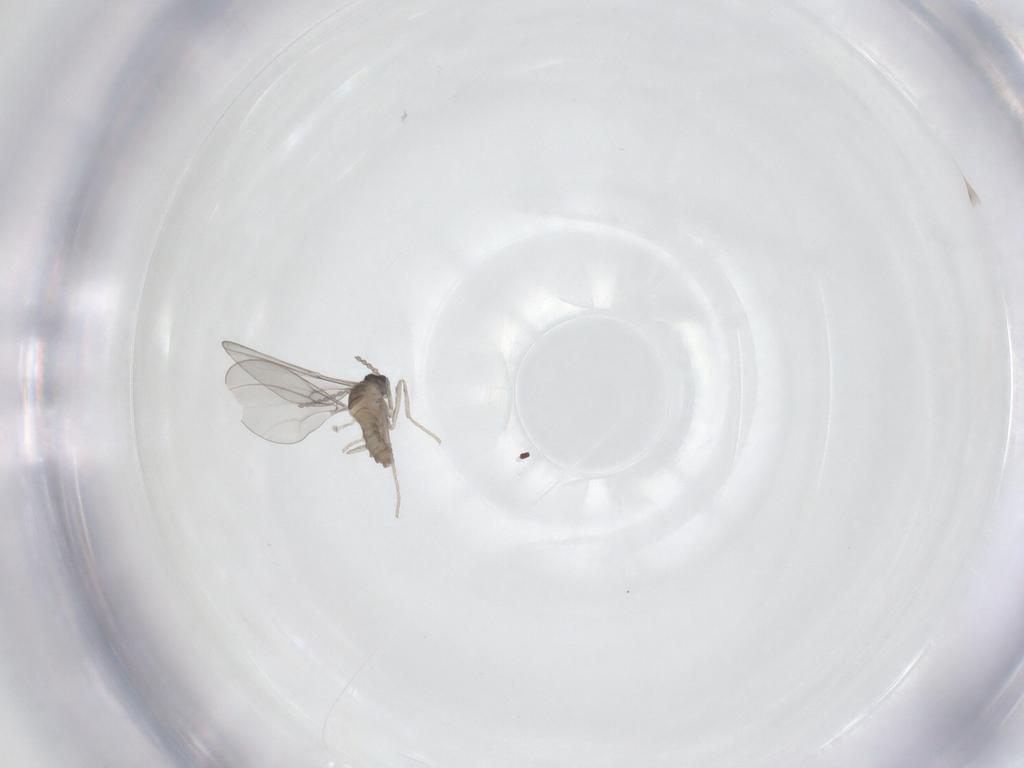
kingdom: Animalia
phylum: Arthropoda
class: Insecta
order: Diptera
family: Cecidomyiidae
